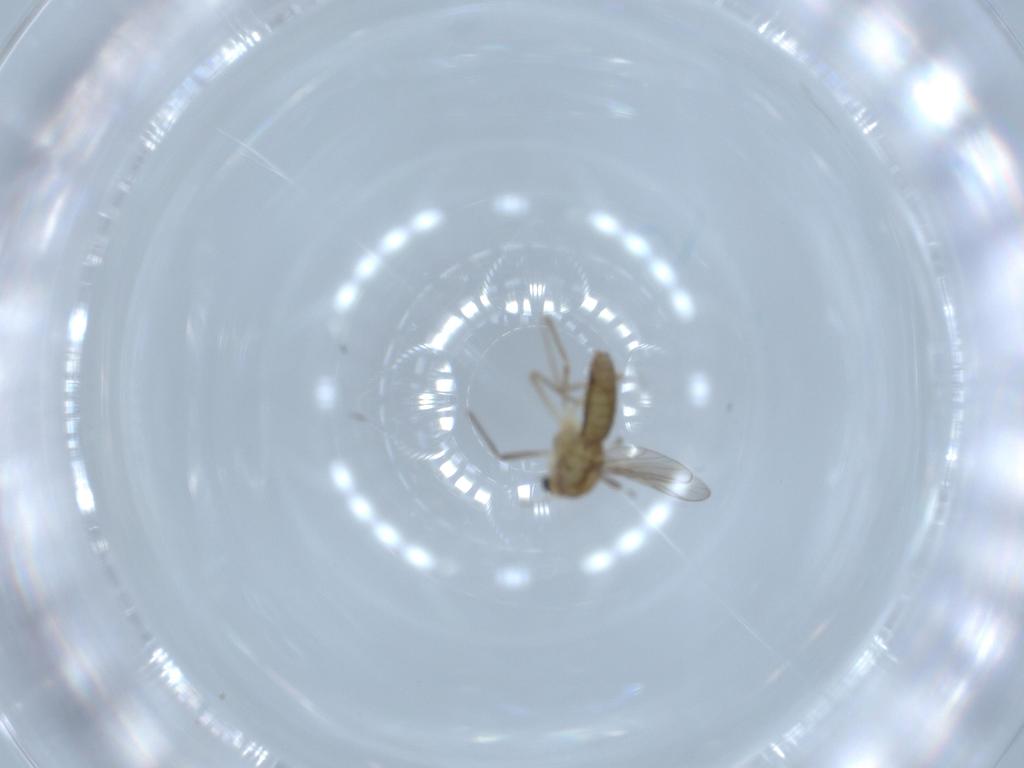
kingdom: Animalia
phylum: Arthropoda
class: Insecta
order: Diptera
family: Chironomidae
